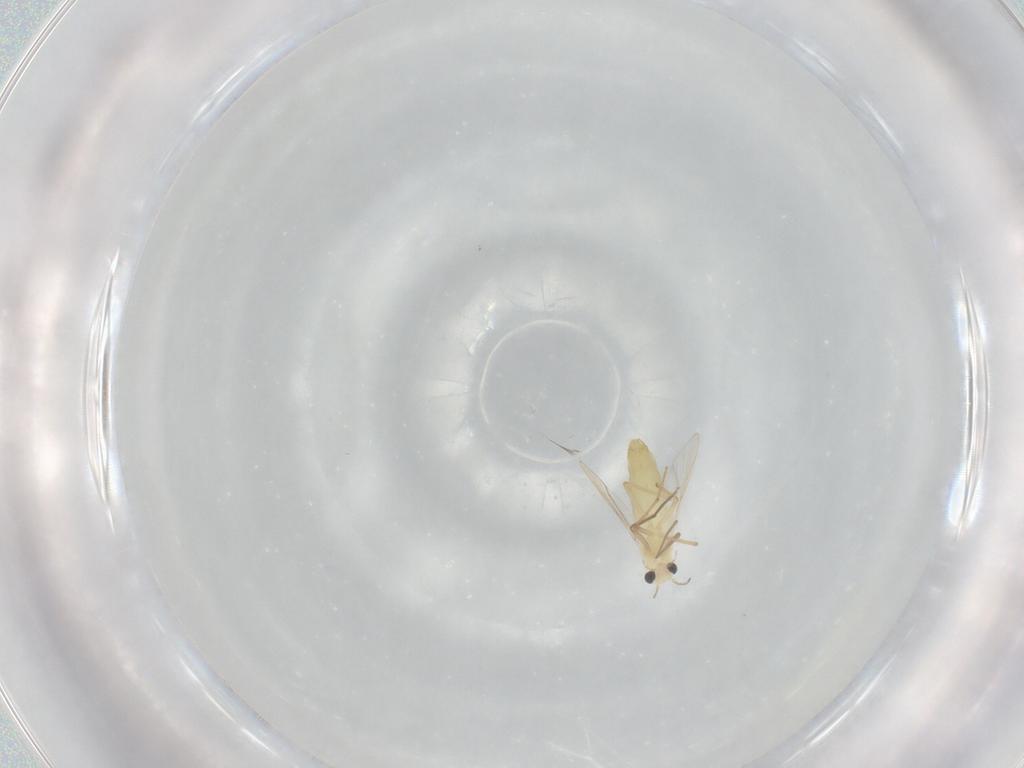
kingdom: Animalia
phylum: Arthropoda
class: Insecta
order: Diptera
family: Chironomidae
